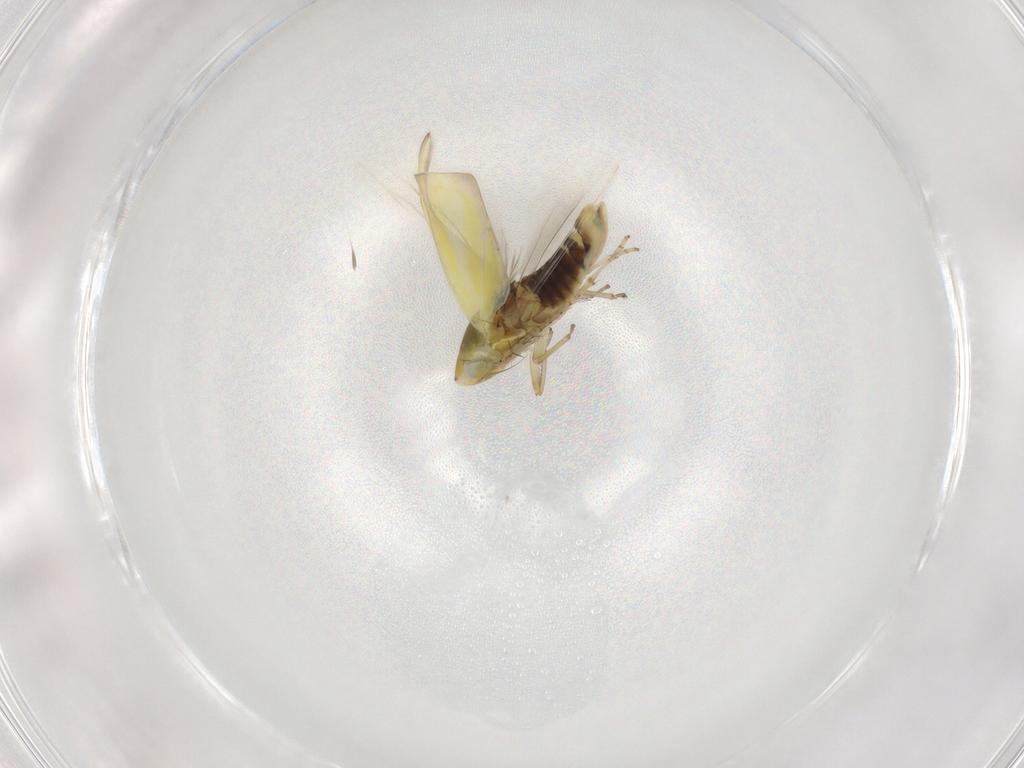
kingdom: Animalia
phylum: Arthropoda
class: Insecta
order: Hemiptera
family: Cicadellidae
